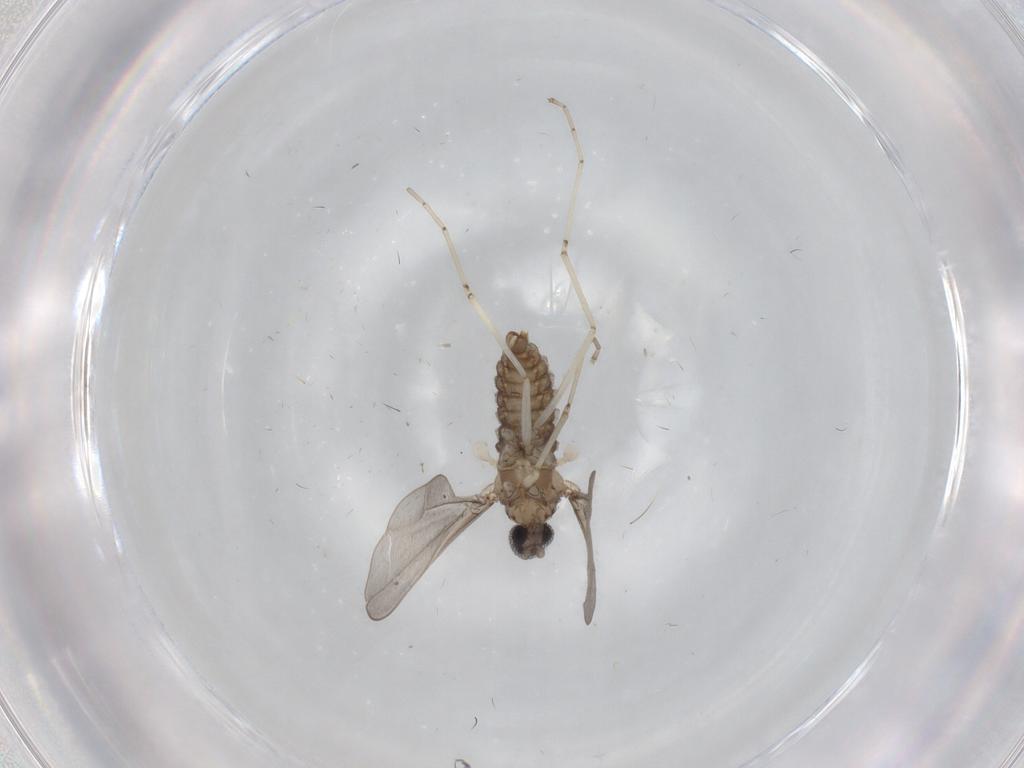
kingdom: Animalia
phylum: Arthropoda
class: Insecta
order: Diptera
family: Cecidomyiidae
